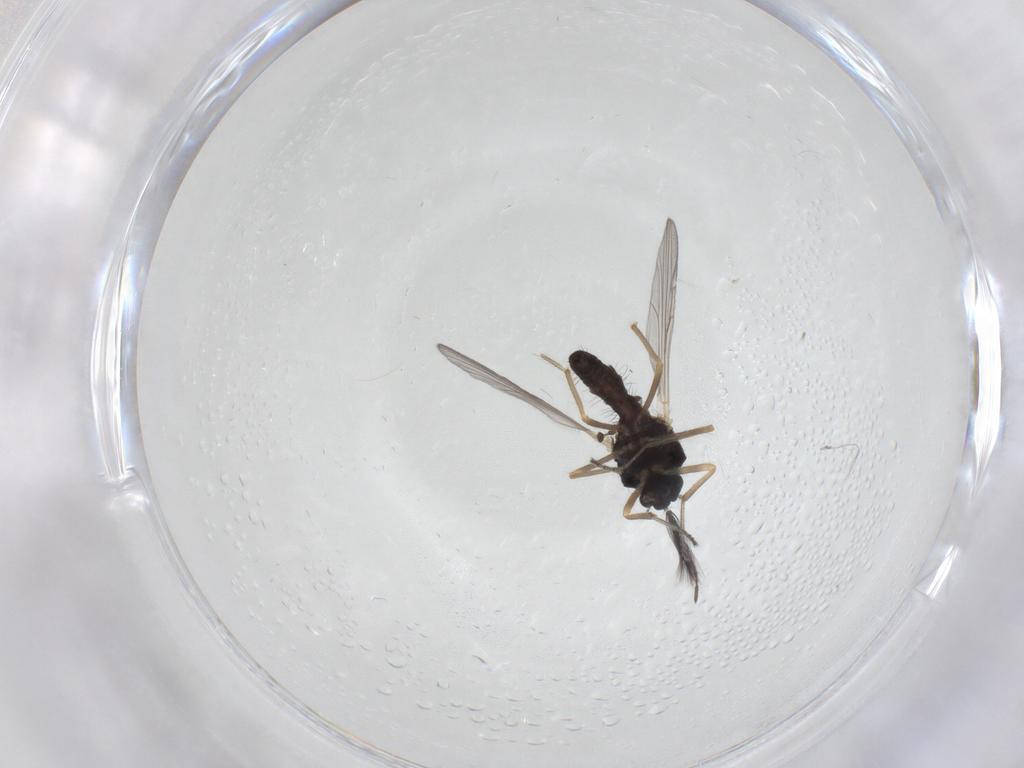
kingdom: Animalia
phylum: Arthropoda
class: Insecta
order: Diptera
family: Ceratopogonidae
